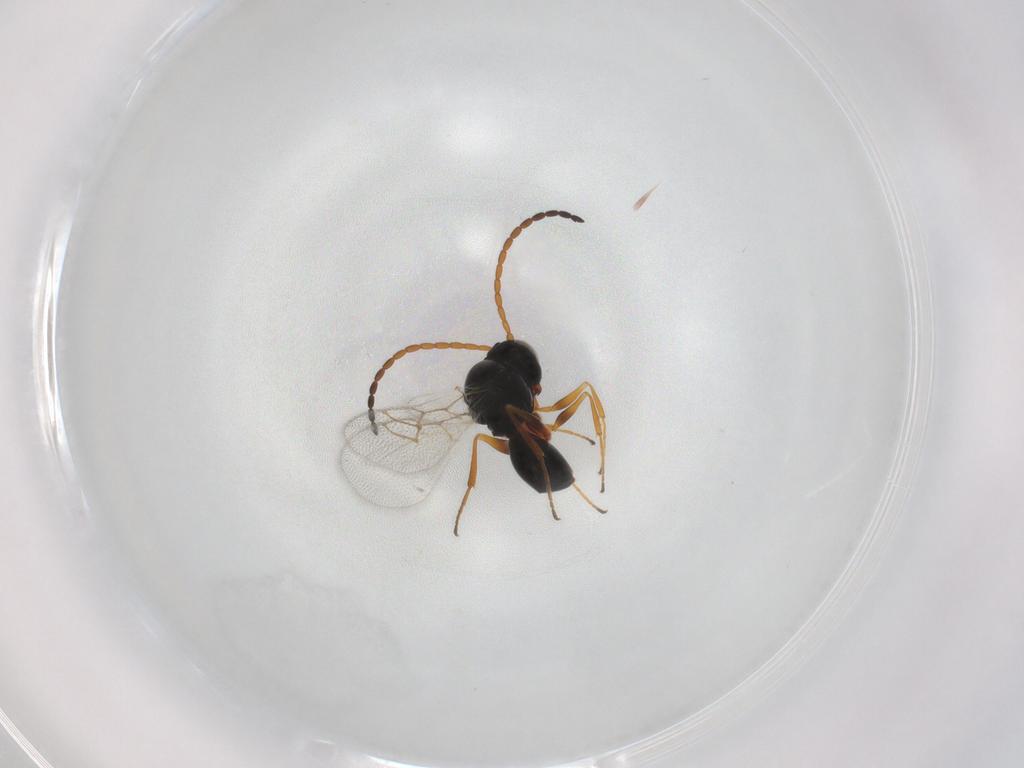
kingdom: Animalia
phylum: Arthropoda
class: Insecta
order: Hymenoptera
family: Figitidae
